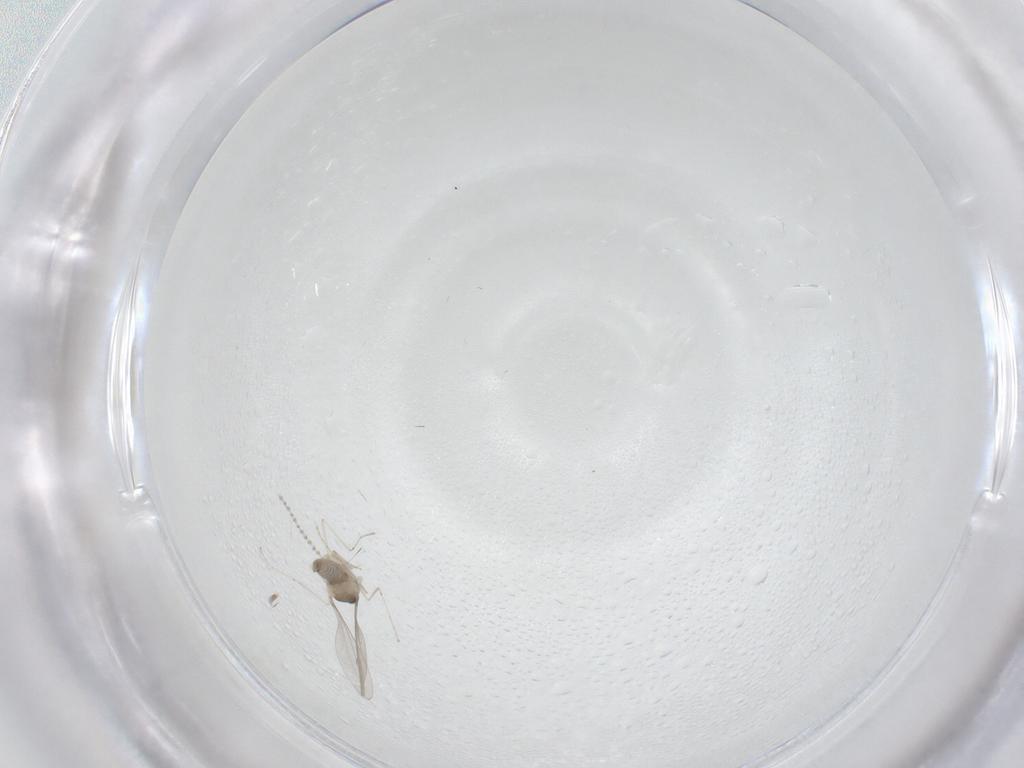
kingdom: Animalia
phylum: Arthropoda
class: Insecta
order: Diptera
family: Cecidomyiidae
